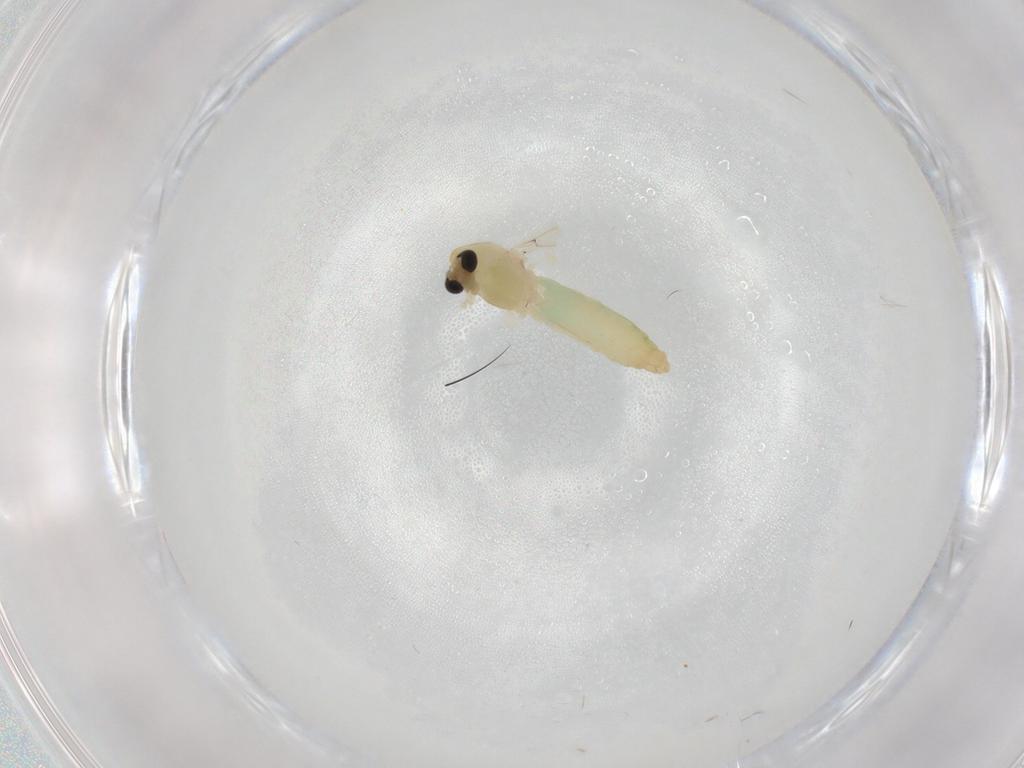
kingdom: Animalia
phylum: Arthropoda
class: Insecta
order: Diptera
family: Chironomidae
